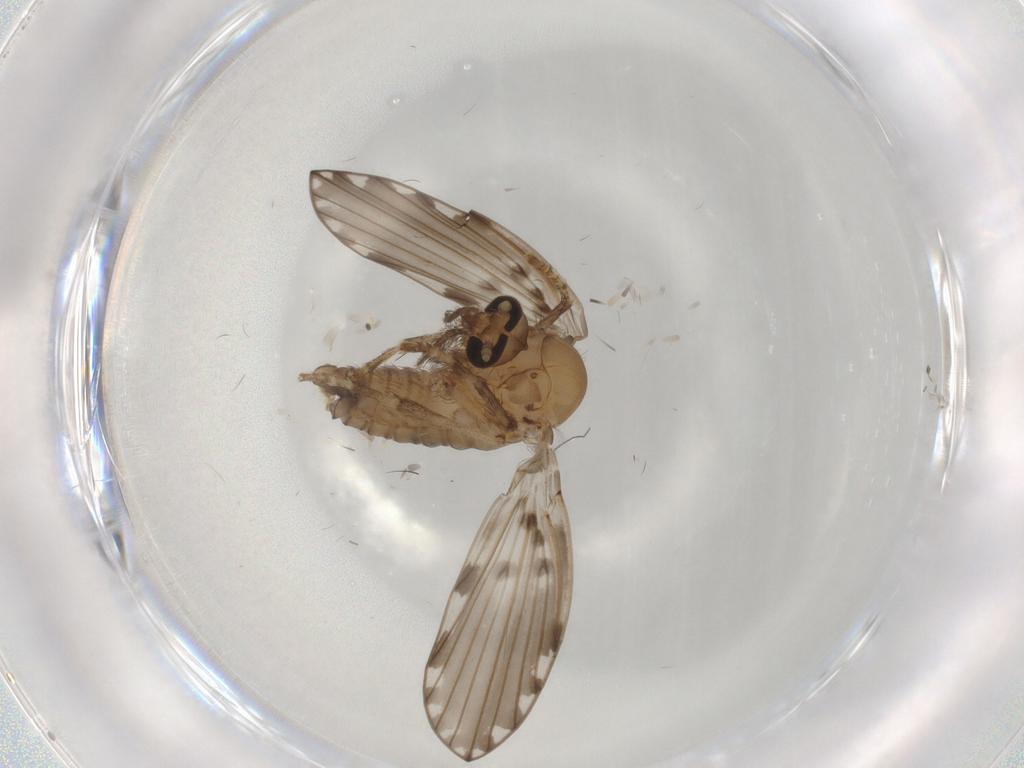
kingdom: Animalia
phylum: Arthropoda
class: Insecta
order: Diptera
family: Psychodidae
